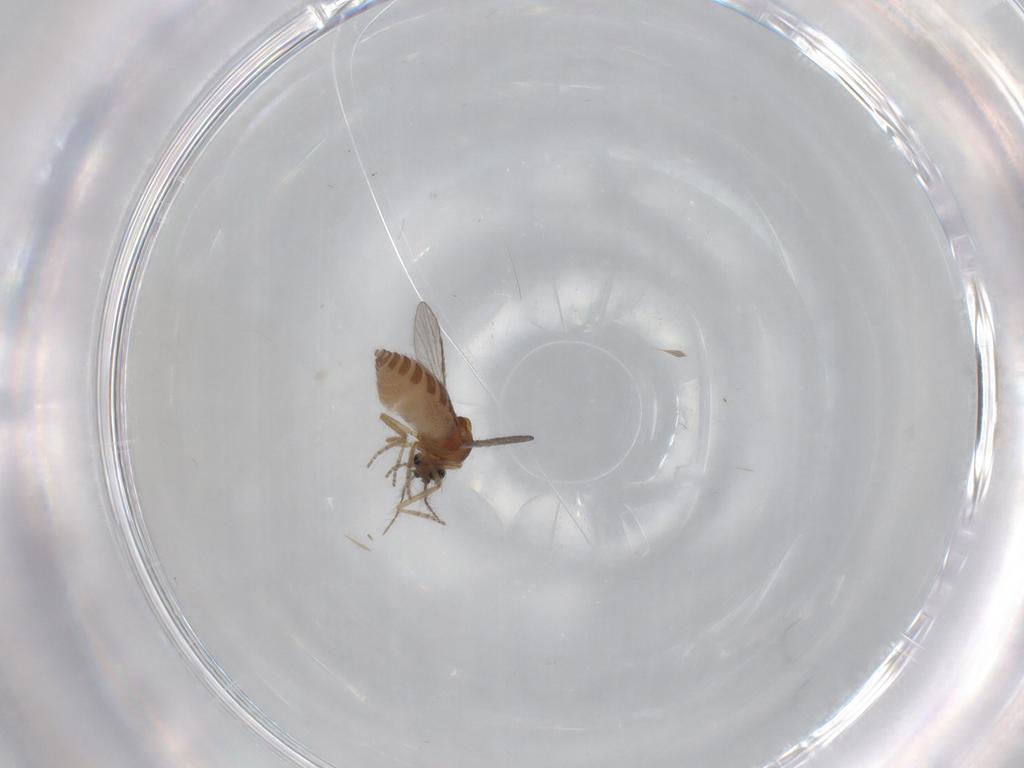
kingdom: Animalia
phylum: Arthropoda
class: Insecta
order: Diptera
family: Ceratopogonidae
